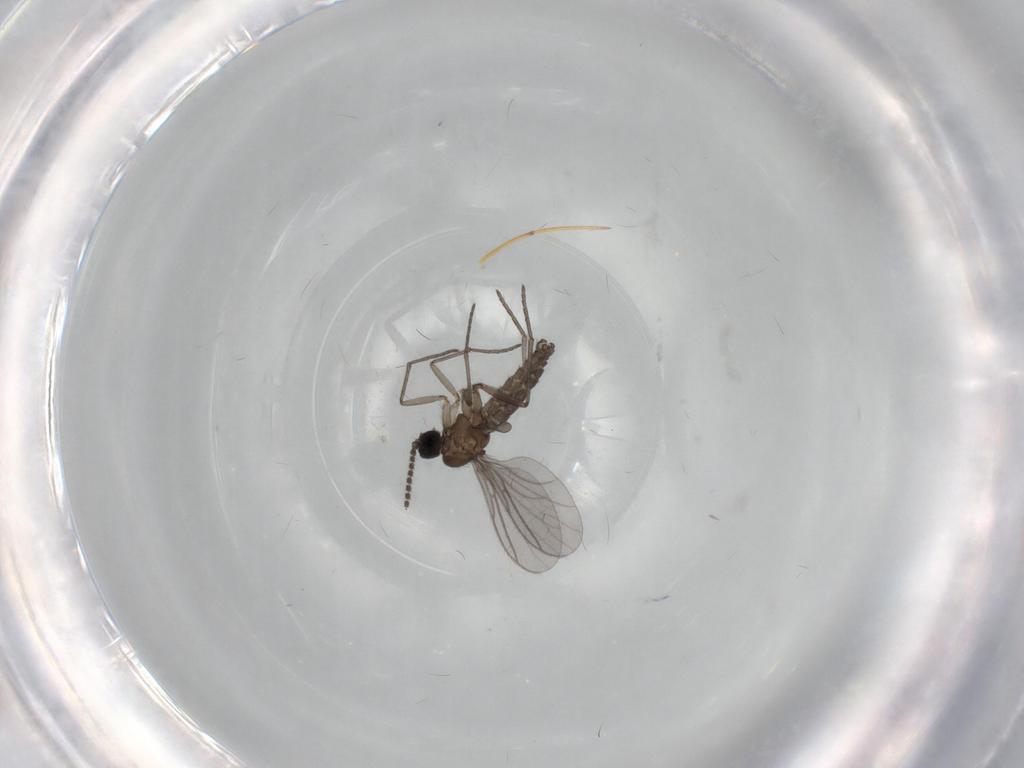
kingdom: Animalia
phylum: Arthropoda
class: Insecta
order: Diptera
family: Sciaridae
